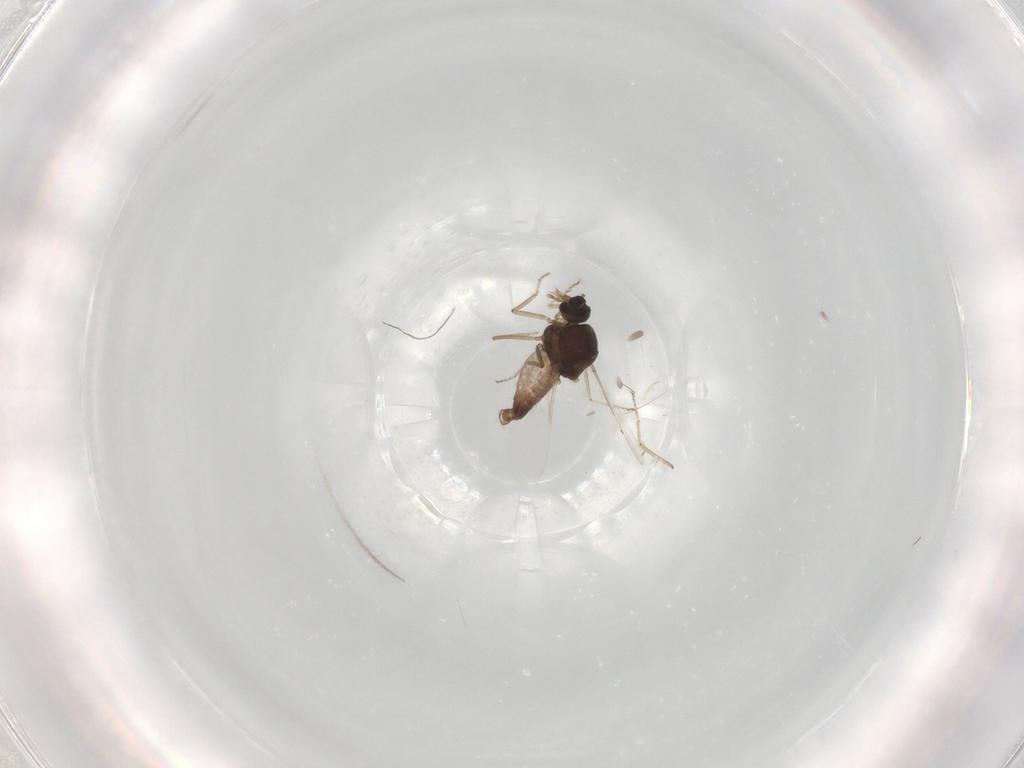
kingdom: Animalia
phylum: Arthropoda
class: Insecta
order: Diptera
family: Ceratopogonidae
